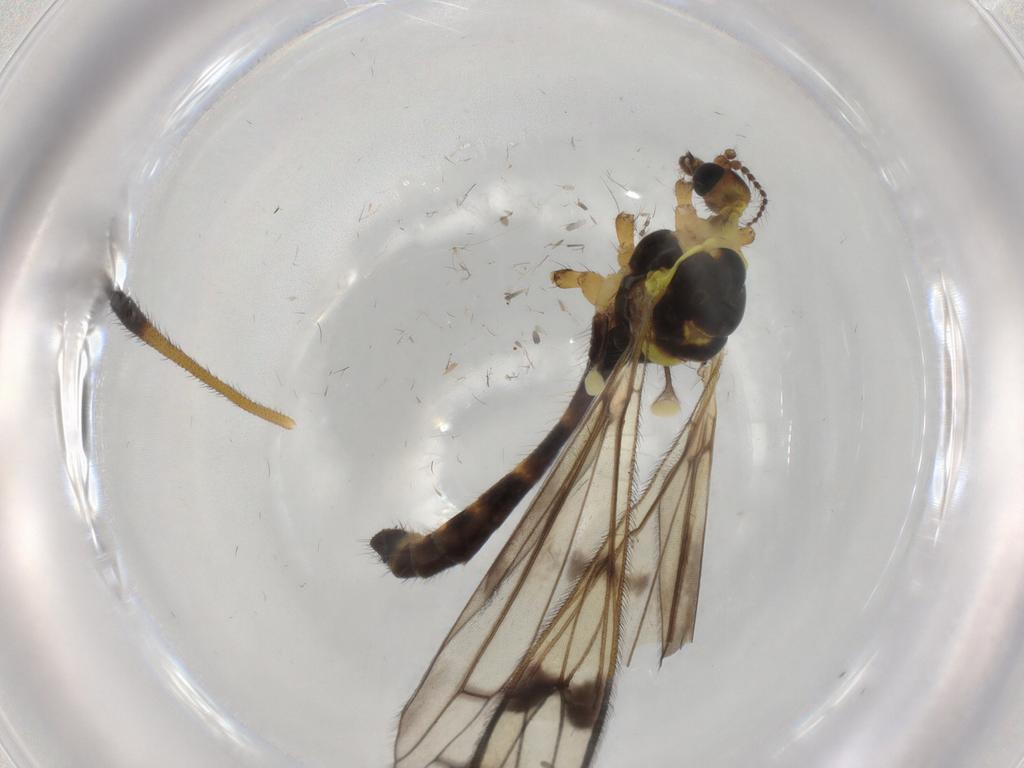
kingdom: Animalia
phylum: Arthropoda
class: Insecta
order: Diptera
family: Limoniidae
